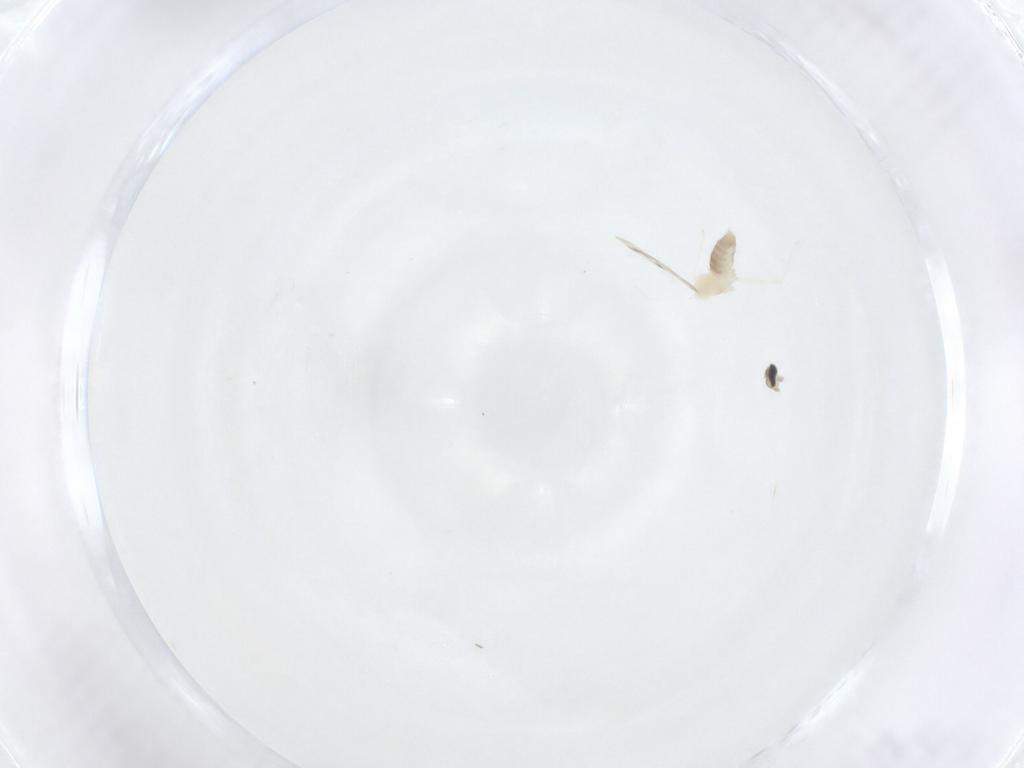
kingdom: Animalia
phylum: Arthropoda
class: Insecta
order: Diptera
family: Cecidomyiidae
